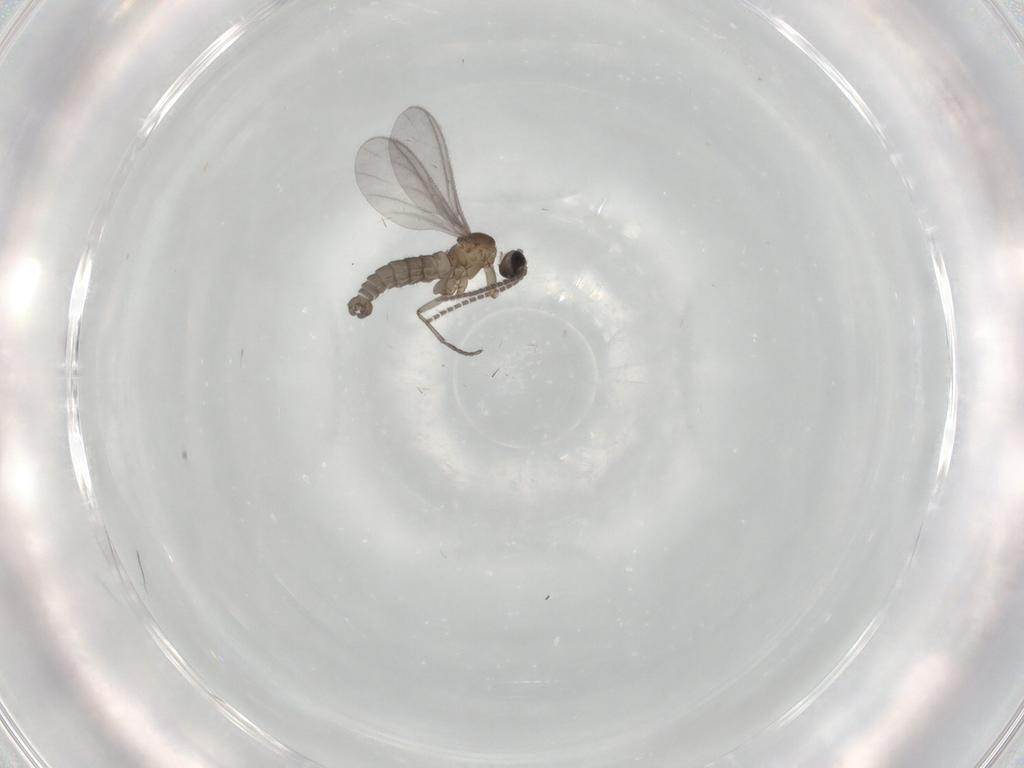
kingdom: Animalia
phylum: Arthropoda
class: Insecta
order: Diptera
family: Sciaridae
